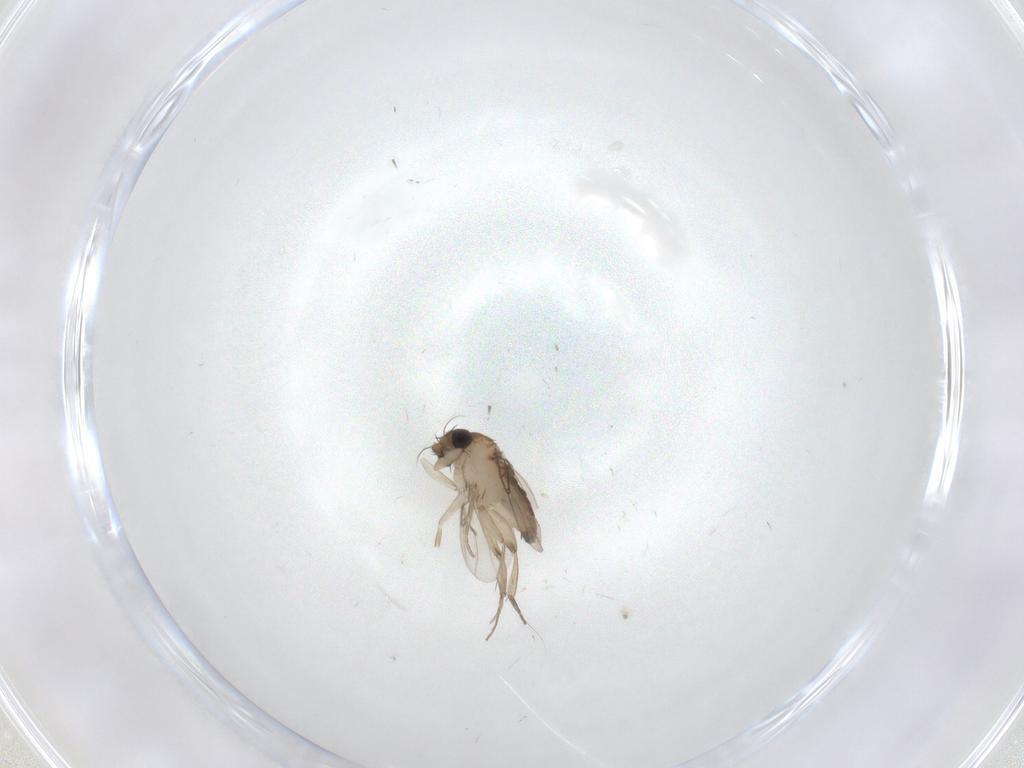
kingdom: Animalia
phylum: Arthropoda
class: Insecta
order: Diptera
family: Phoridae
